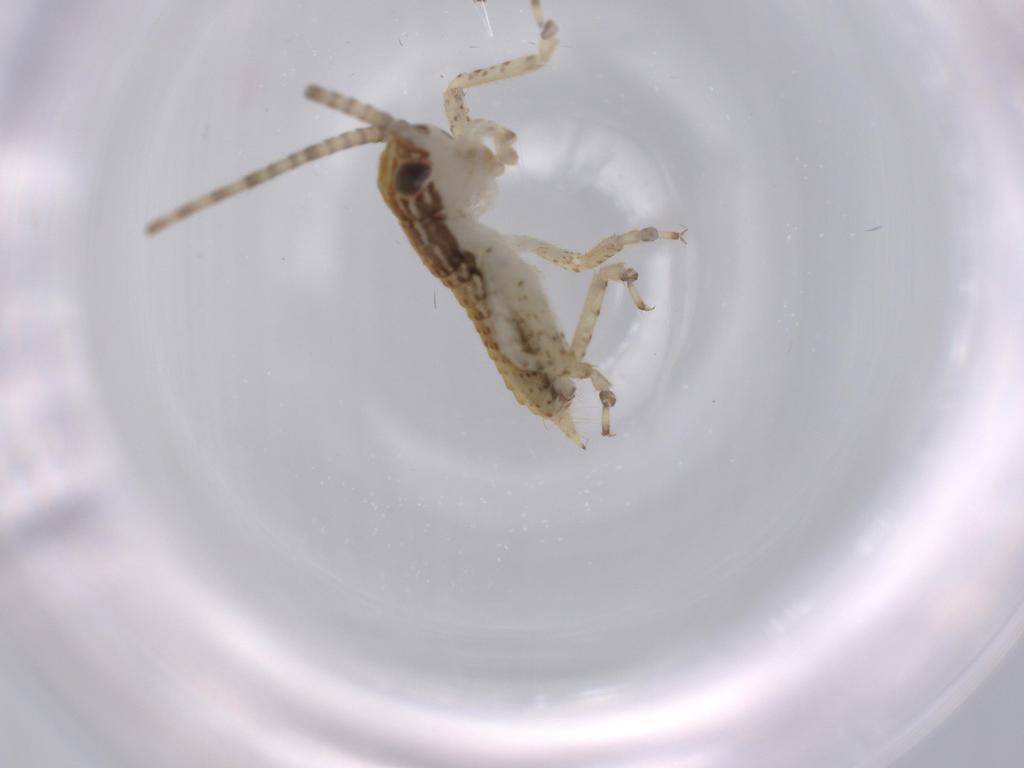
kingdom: Animalia
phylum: Arthropoda
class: Insecta
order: Orthoptera
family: Gryllidae
